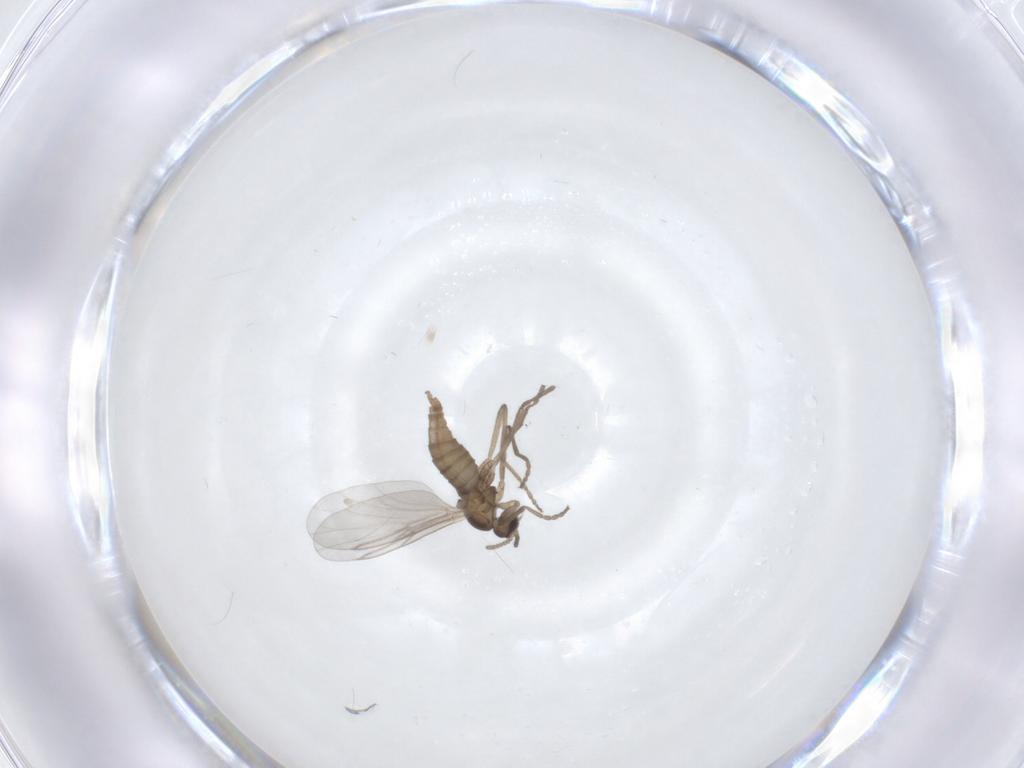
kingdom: Animalia
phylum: Arthropoda
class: Insecta
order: Diptera
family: Cecidomyiidae
